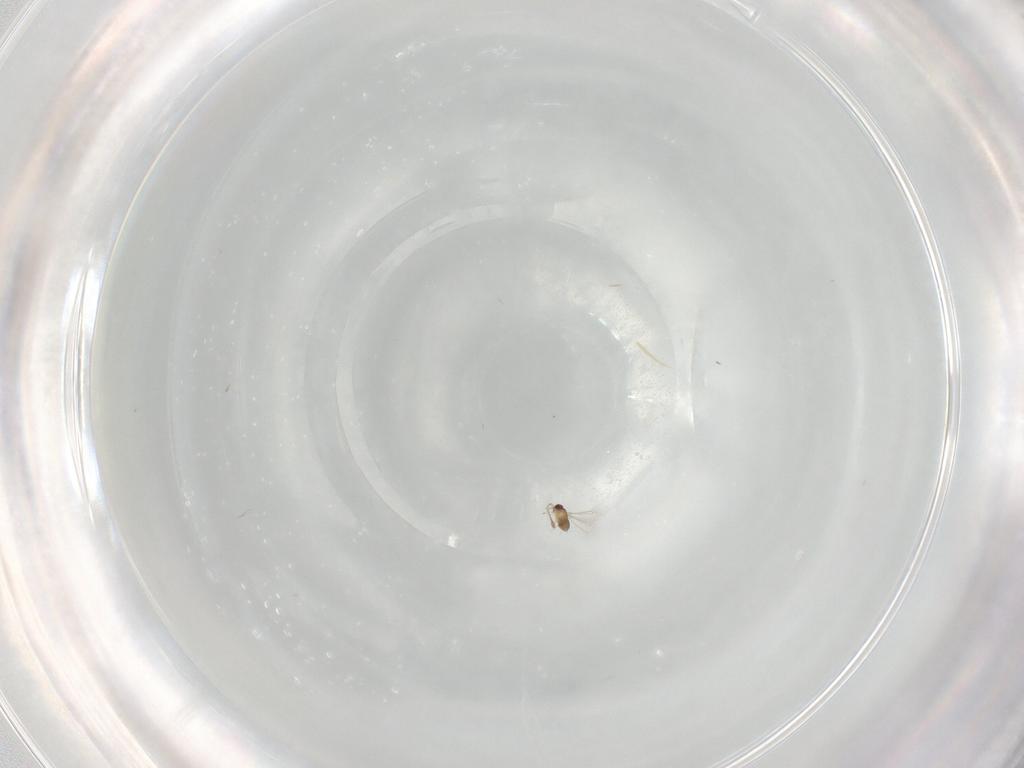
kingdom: Animalia
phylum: Arthropoda
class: Insecta
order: Hymenoptera
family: Mymaridae
